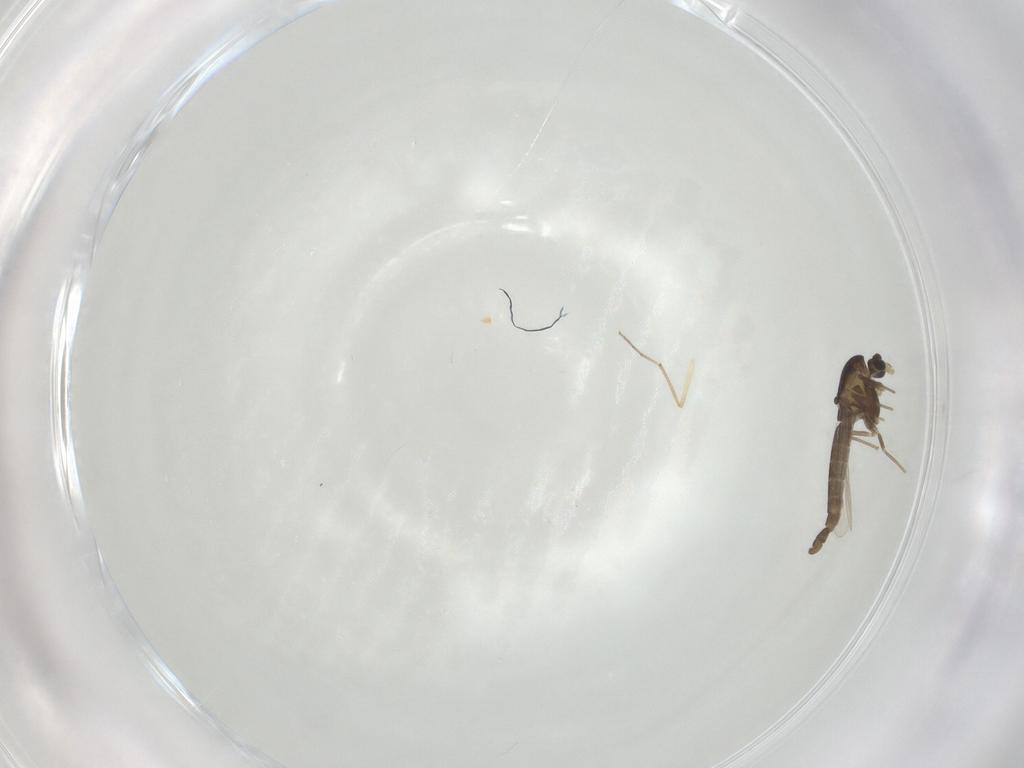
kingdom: Animalia
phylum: Arthropoda
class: Insecta
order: Diptera
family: Chironomidae
